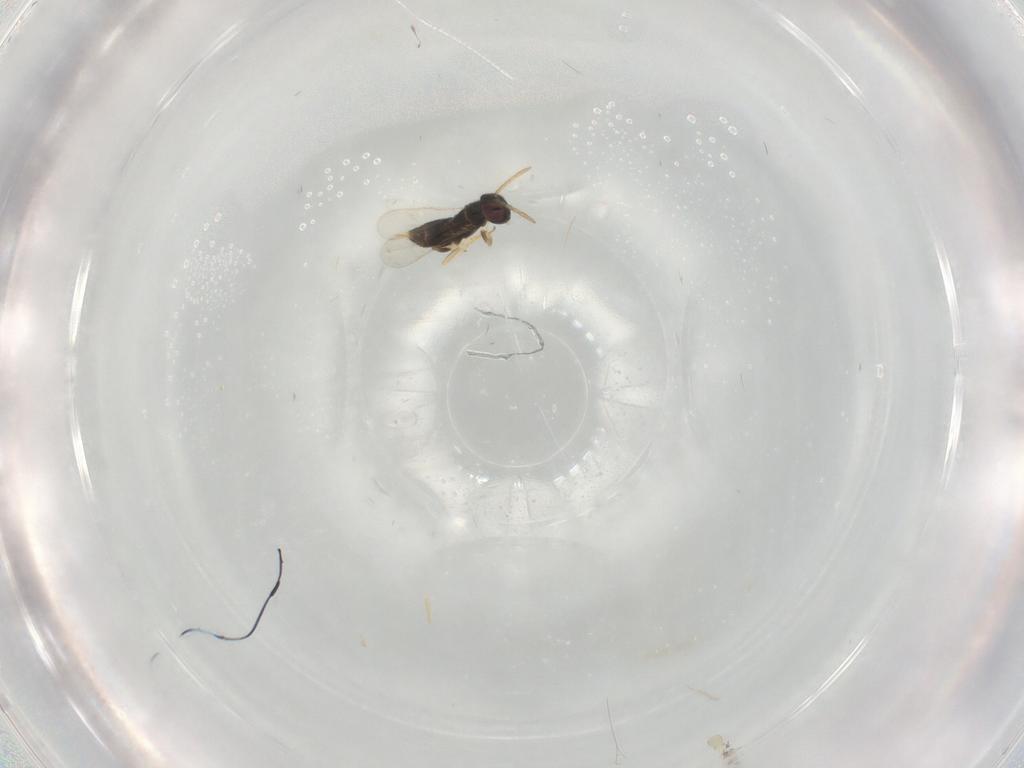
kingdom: Animalia
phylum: Arthropoda
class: Insecta
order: Hymenoptera
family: Aphelinidae
